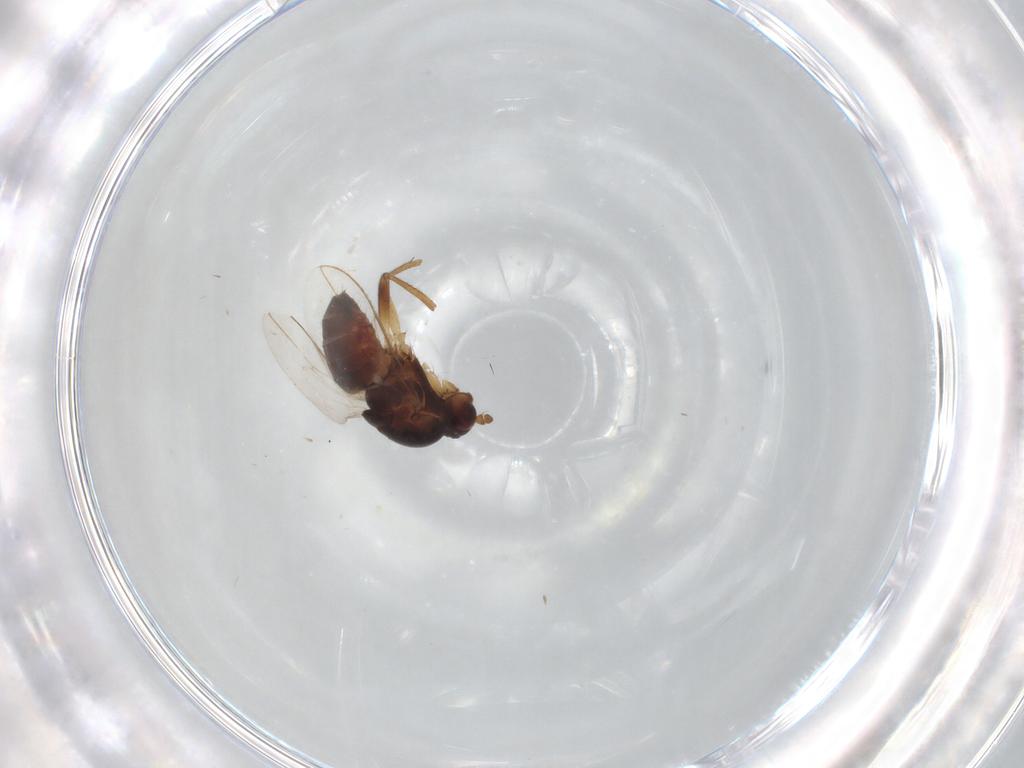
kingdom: Animalia
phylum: Arthropoda
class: Insecta
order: Diptera
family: Psychodidae
